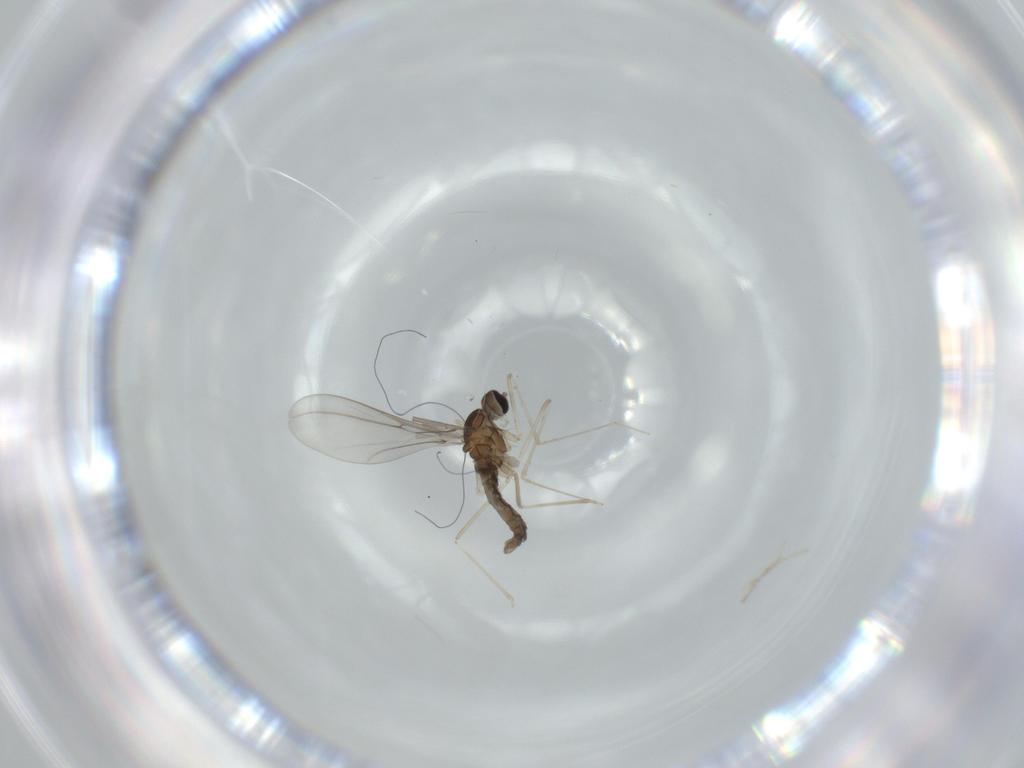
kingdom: Animalia
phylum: Arthropoda
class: Insecta
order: Diptera
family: Cecidomyiidae
